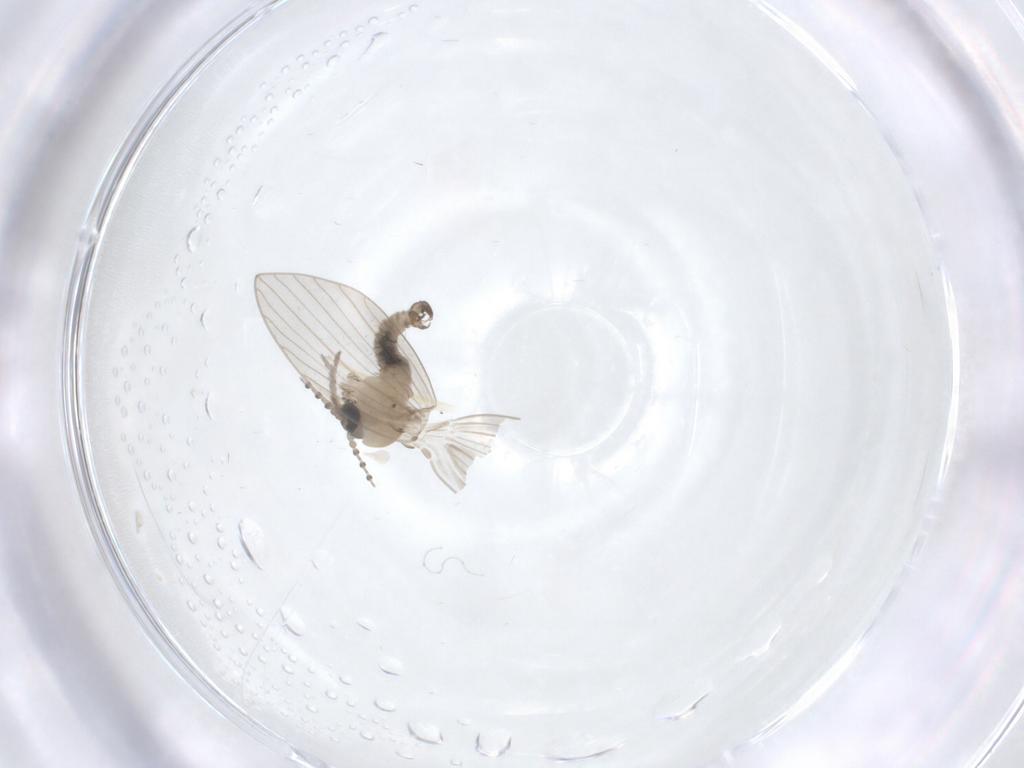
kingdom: Animalia
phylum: Arthropoda
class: Insecta
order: Diptera
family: Psychodidae
